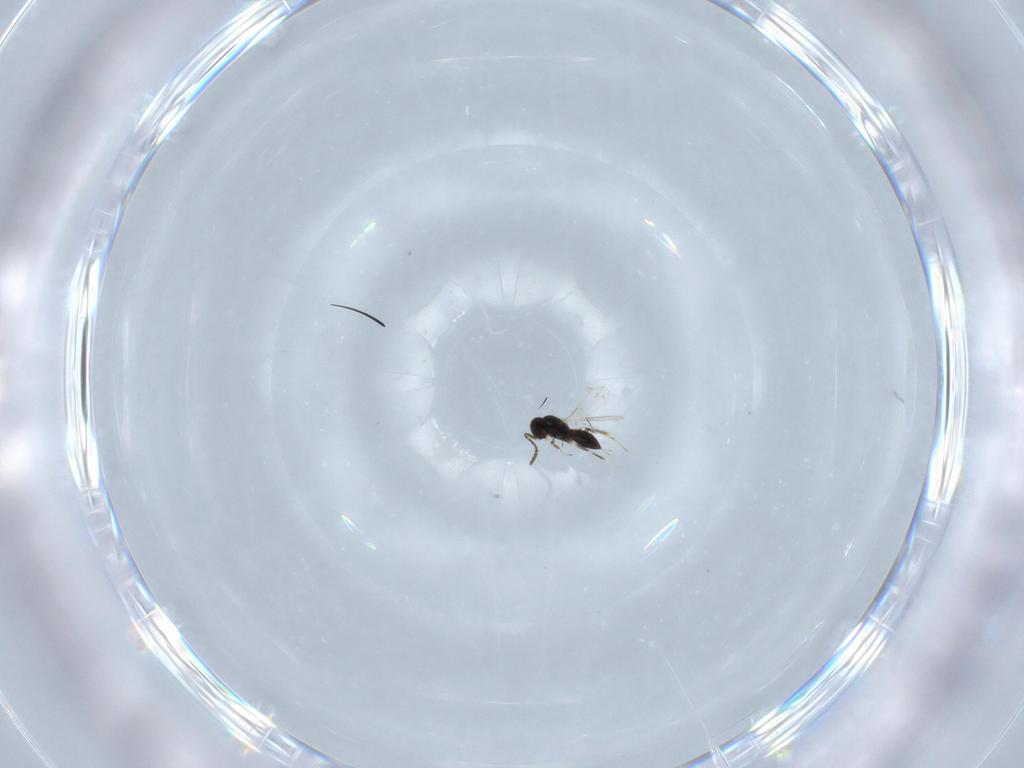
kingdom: Animalia
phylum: Arthropoda
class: Insecta
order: Hymenoptera
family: Scelionidae
